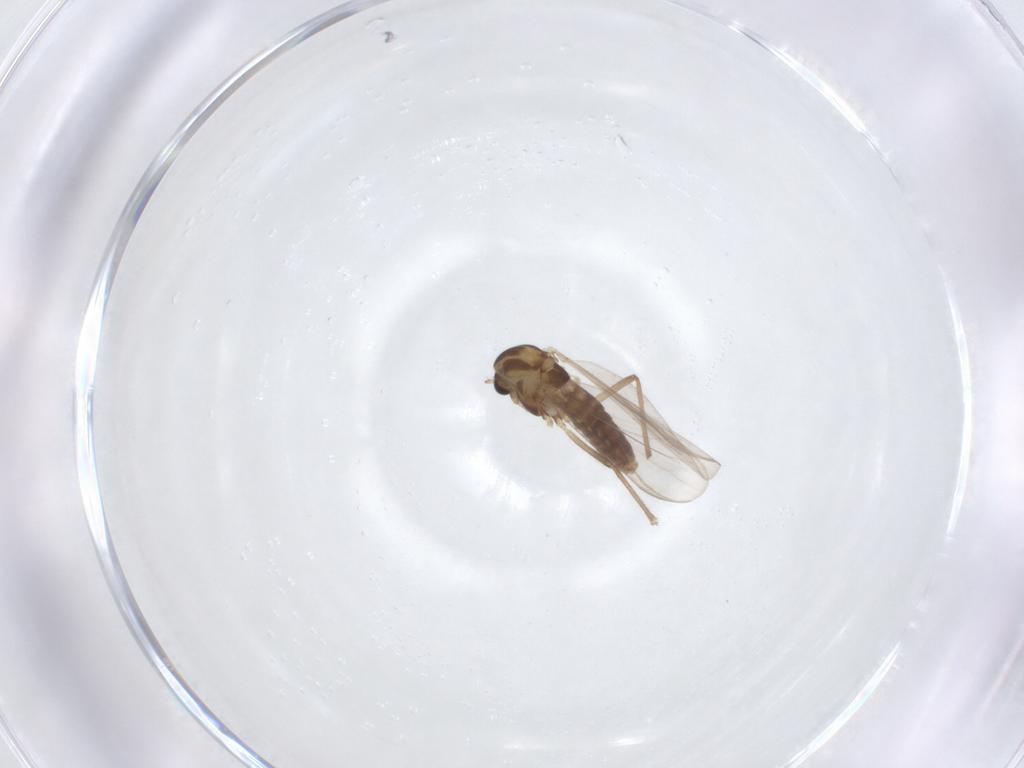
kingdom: Animalia
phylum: Arthropoda
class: Insecta
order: Diptera
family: Chironomidae
